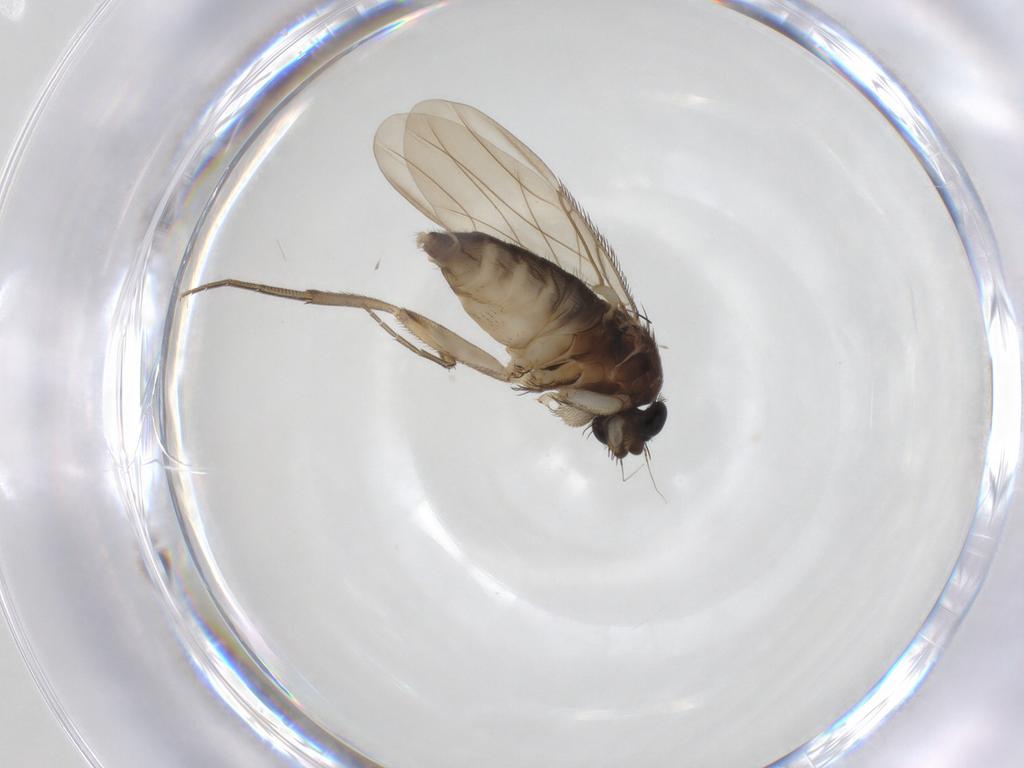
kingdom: Animalia
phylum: Arthropoda
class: Insecta
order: Diptera
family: Phoridae
